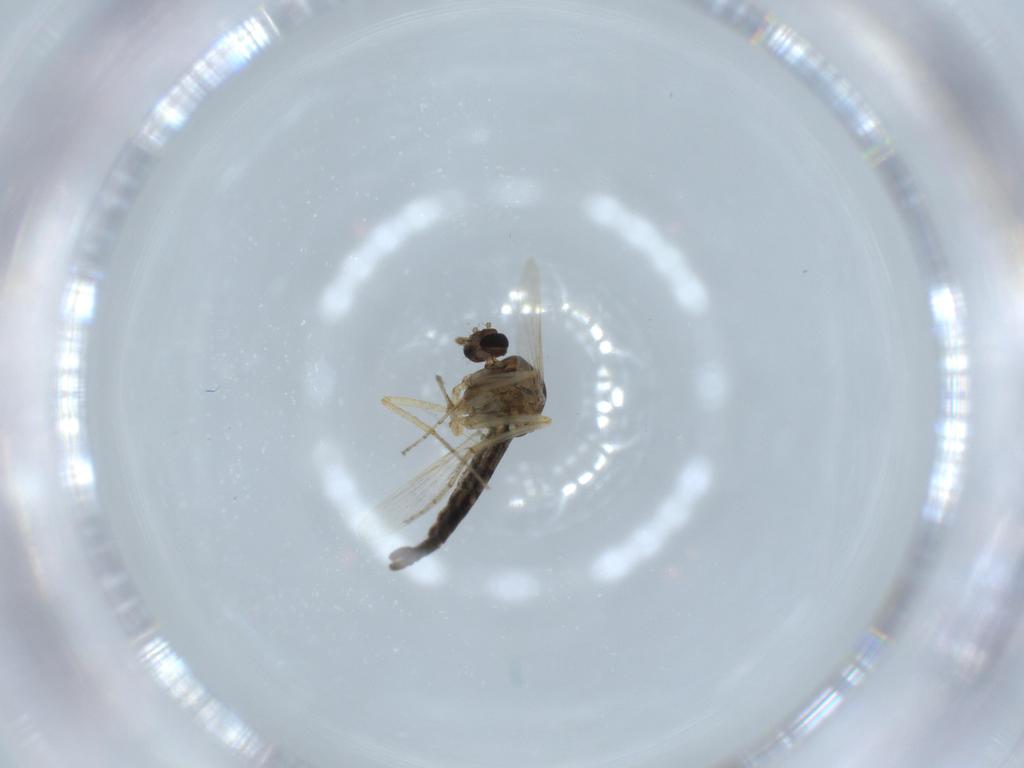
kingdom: Animalia
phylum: Arthropoda
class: Insecta
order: Diptera
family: Ceratopogonidae
